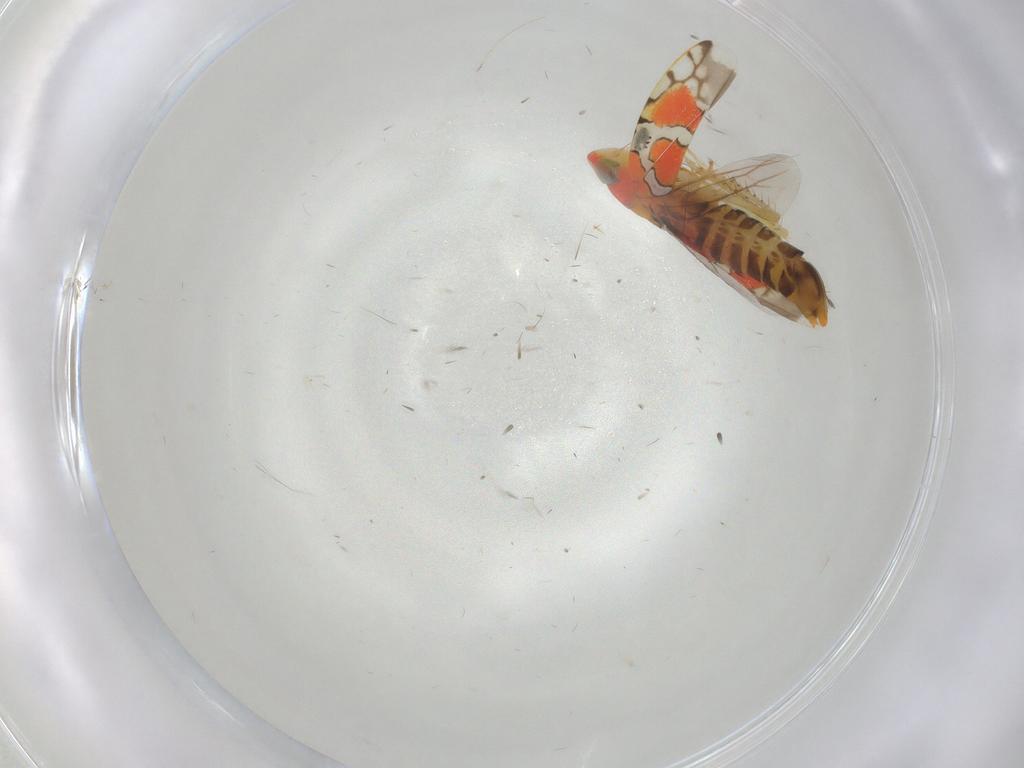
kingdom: Animalia
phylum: Arthropoda
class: Insecta
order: Hemiptera
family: Cicadellidae
